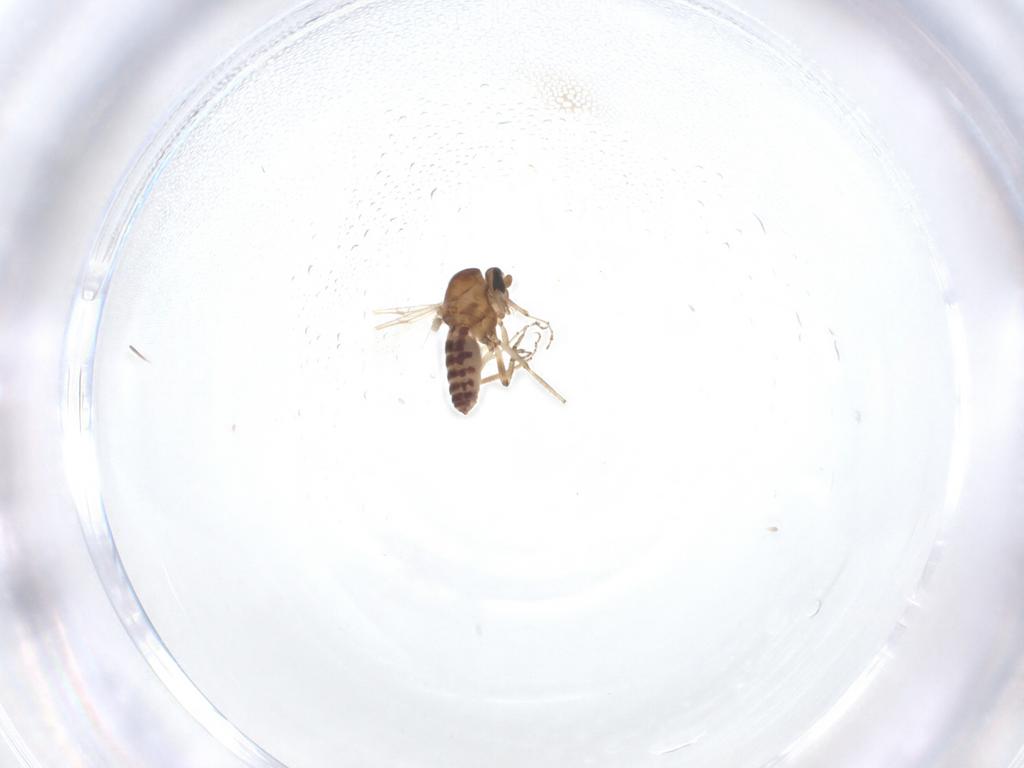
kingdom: Animalia
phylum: Arthropoda
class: Insecta
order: Diptera
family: Ceratopogonidae
